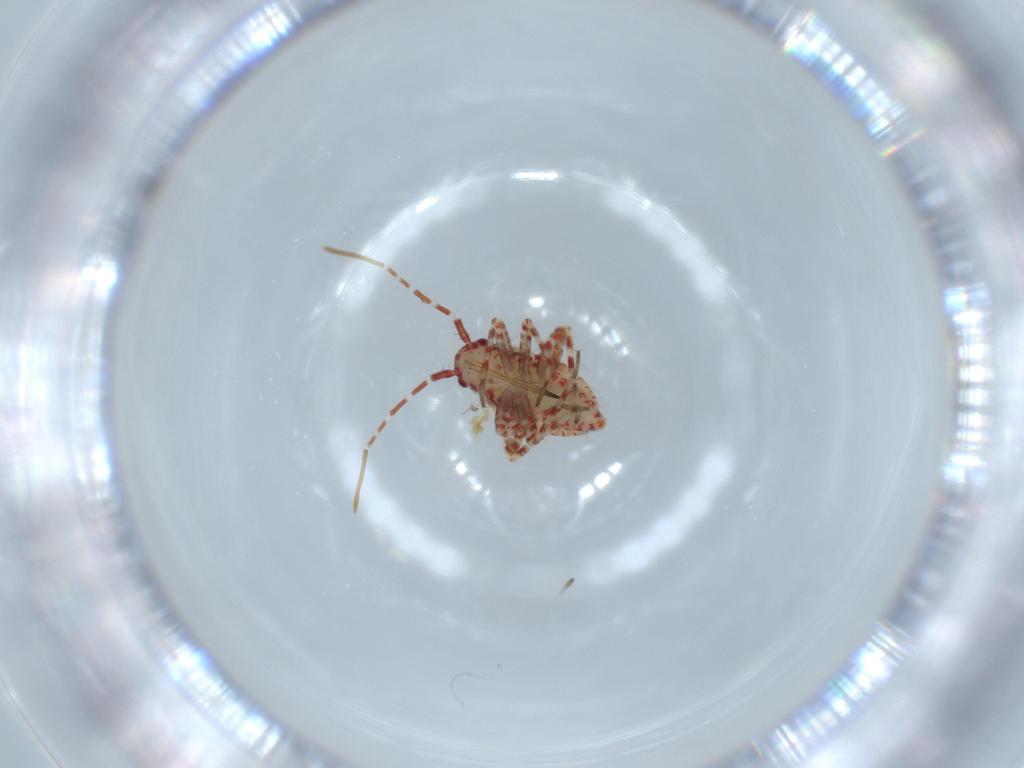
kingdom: Animalia
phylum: Arthropoda
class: Insecta
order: Hemiptera
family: Miridae
